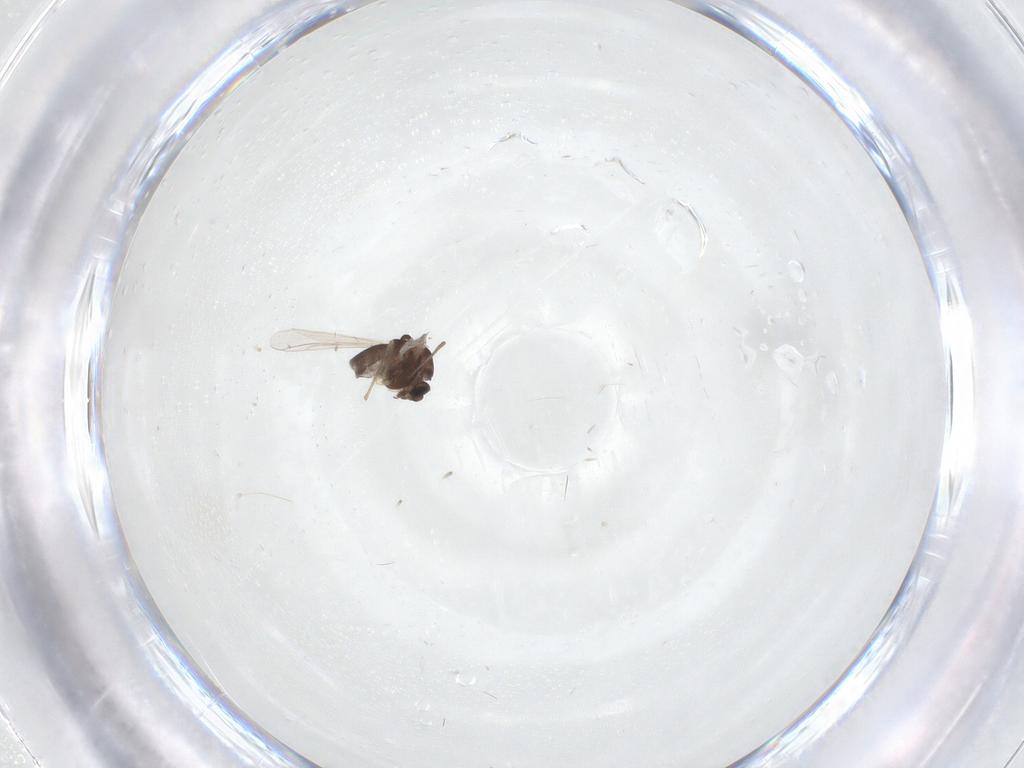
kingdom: Animalia
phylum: Arthropoda
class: Insecta
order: Diptera
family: Chironomidae
